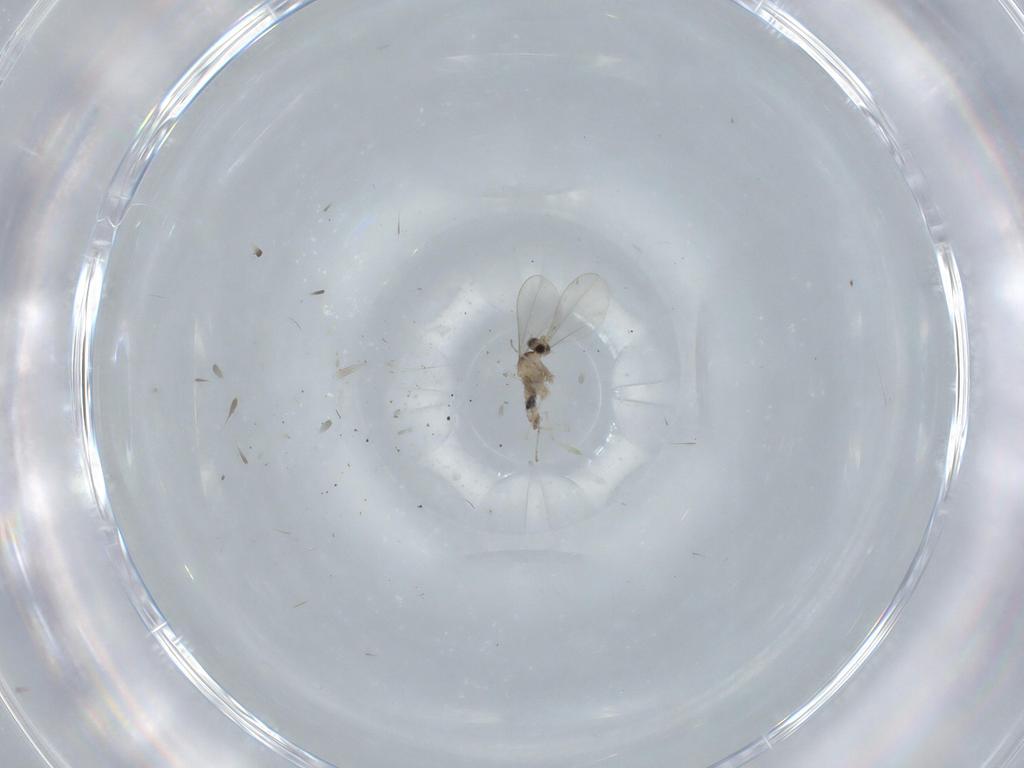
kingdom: Animalia
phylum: Arthropoda
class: Insecta
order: Diptera
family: Cecidomyiidae
